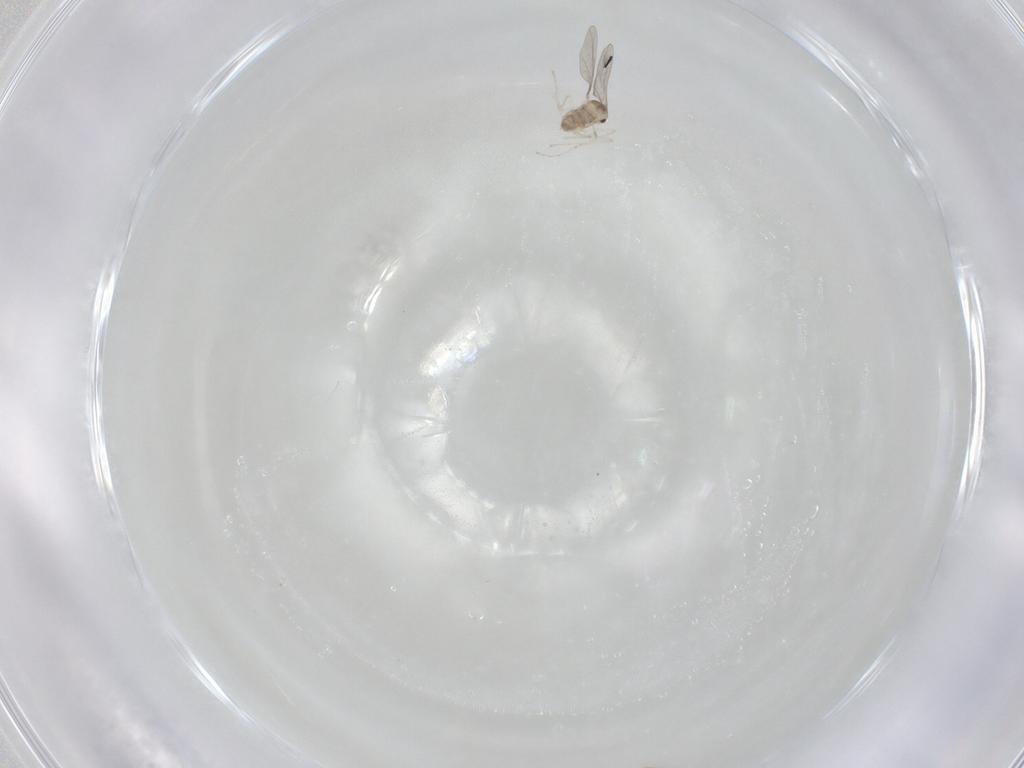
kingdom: Animalia
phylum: Arthropoda
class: Insecta
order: Diptera
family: Cecidomyiidae
